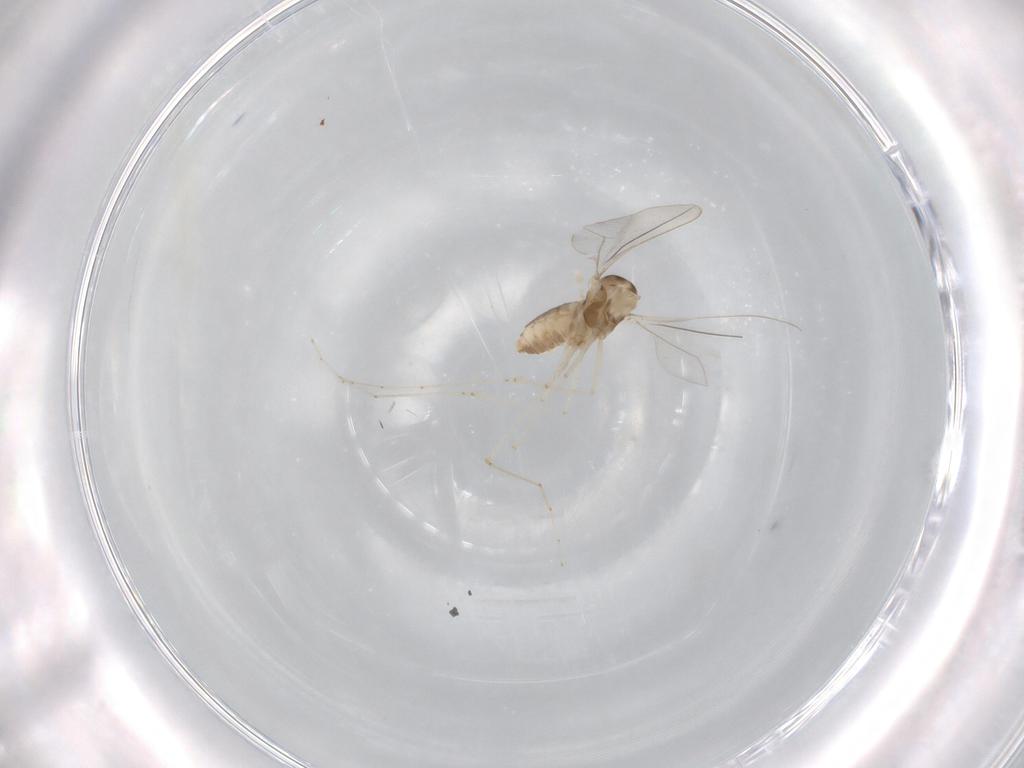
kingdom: Animalia
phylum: Arthropoda
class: Insecta
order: Diptera
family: Cecidomyiidae
